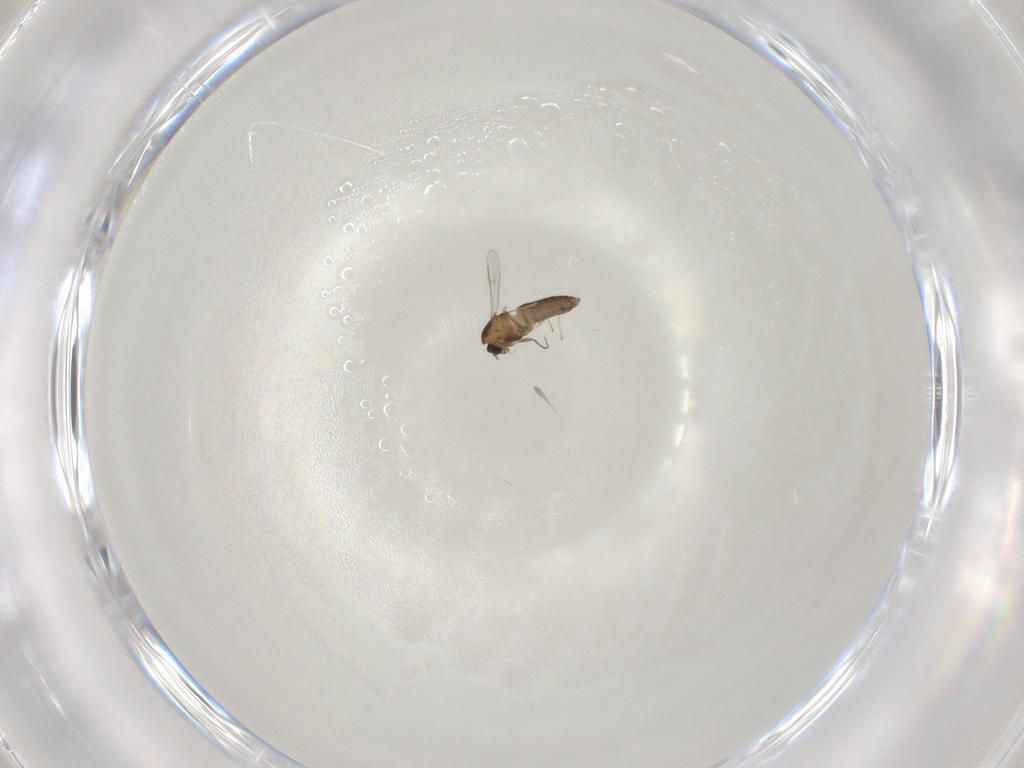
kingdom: Animalia
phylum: Arthropoda
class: Insecta
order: Diptera
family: Chironomidae
